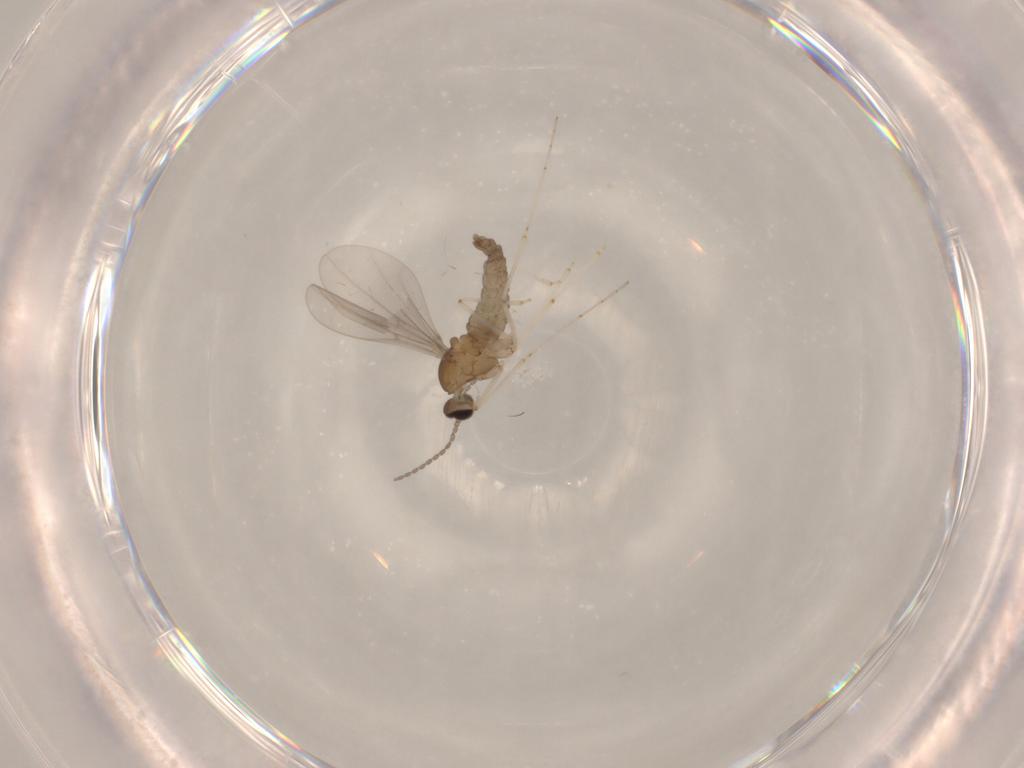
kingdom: Animalia
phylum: Arthropoda
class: Insecta
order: Diptera
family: Cecidomyiidae
